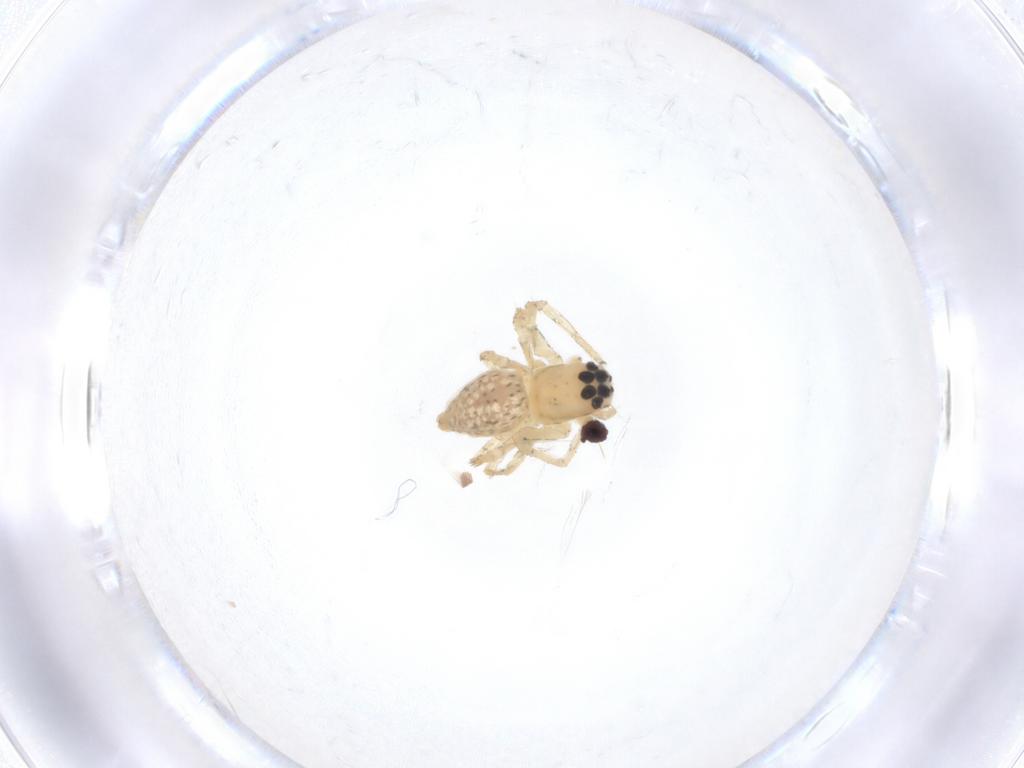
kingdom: Animalia
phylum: Arthropoda
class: Arachnida
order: Araneae
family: Oxyopidae
